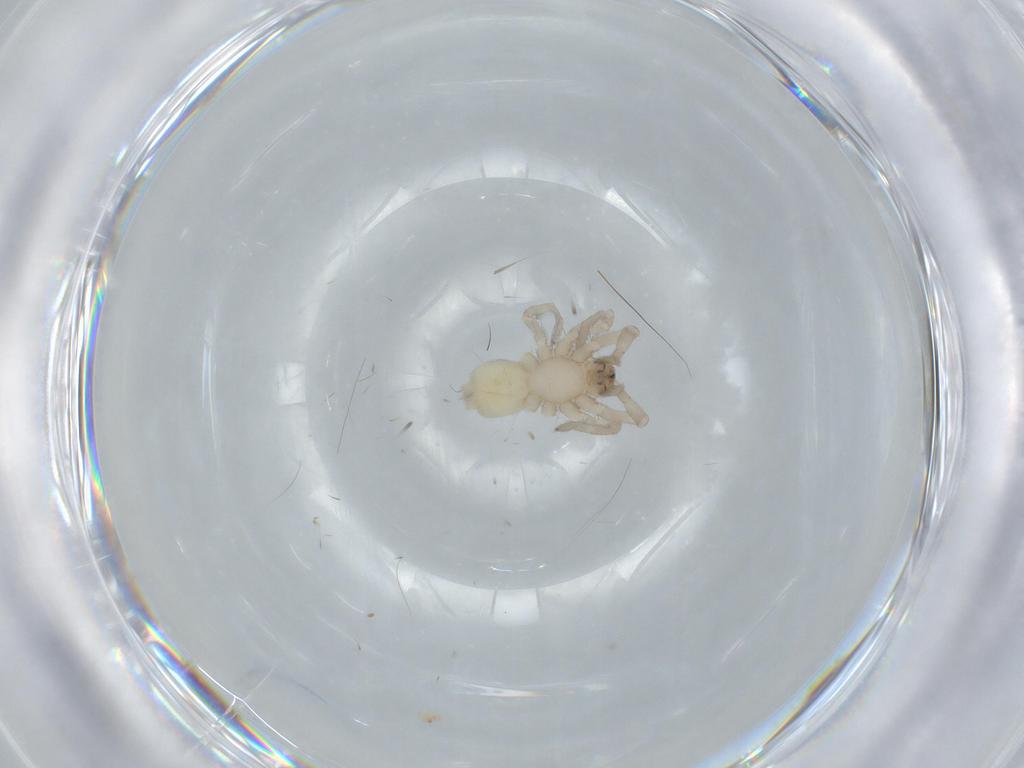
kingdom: Animalia
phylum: Arthropoda
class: Arachnida
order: Araneae
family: Gnaphosidae
